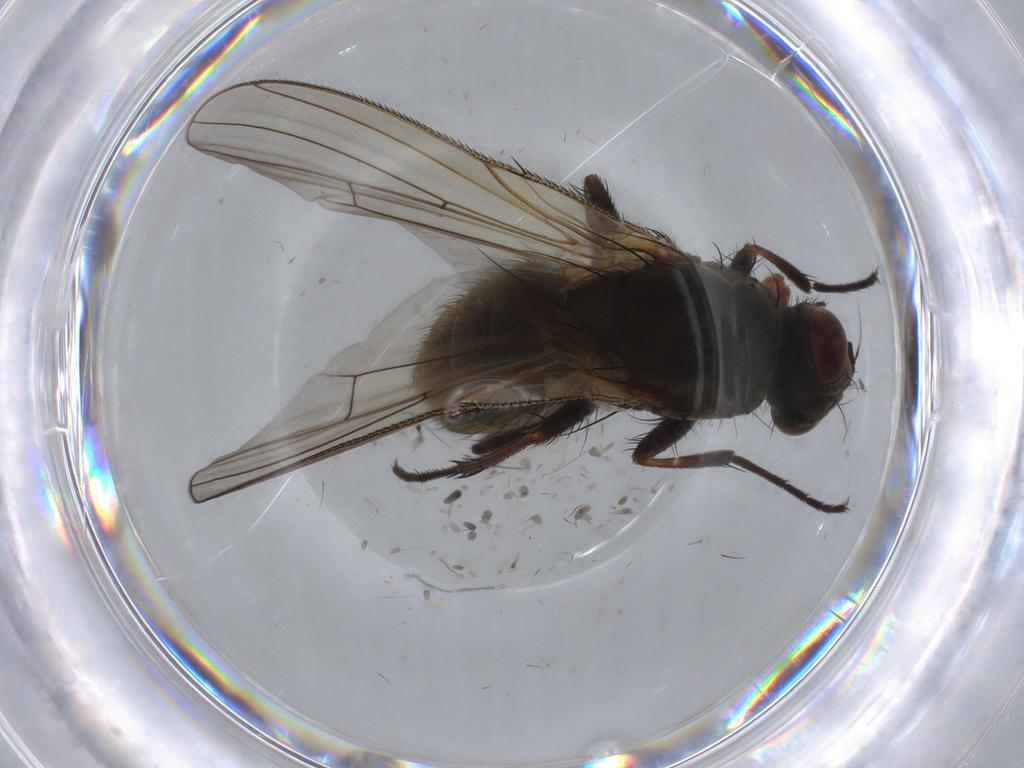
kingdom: Animalia
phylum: Arthropoda
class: Insecta
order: Diptera
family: Anthomyiidae
